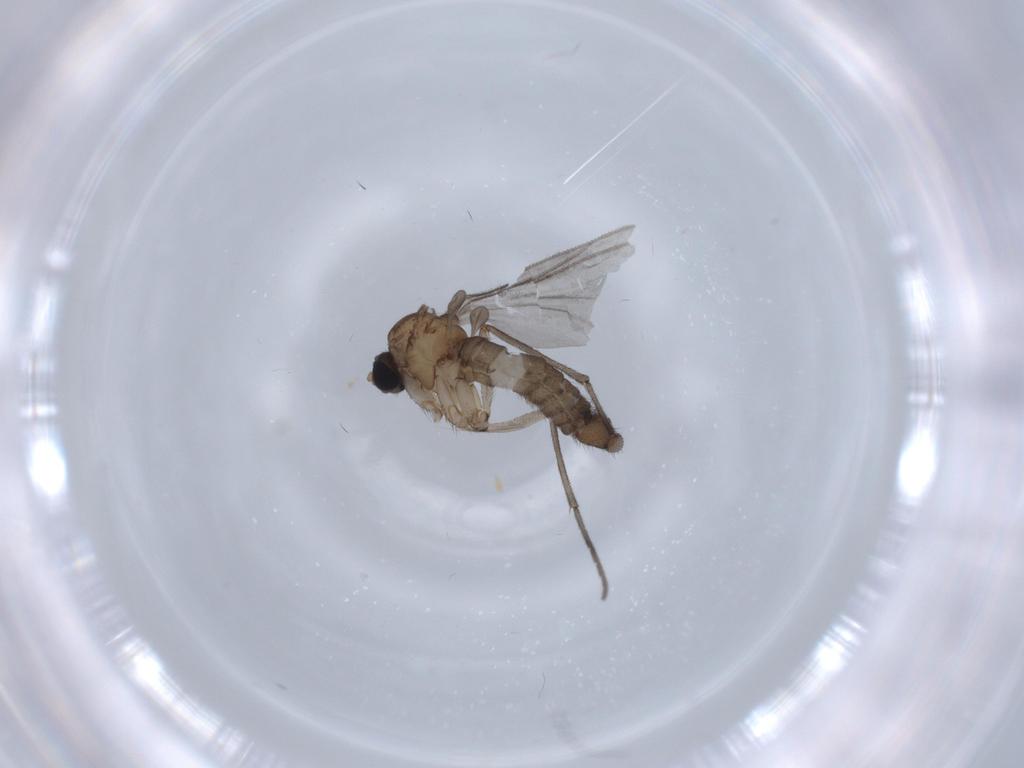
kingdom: Animalia
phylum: Arthropoda
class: Insecta
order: Diptera
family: Sciaridae
